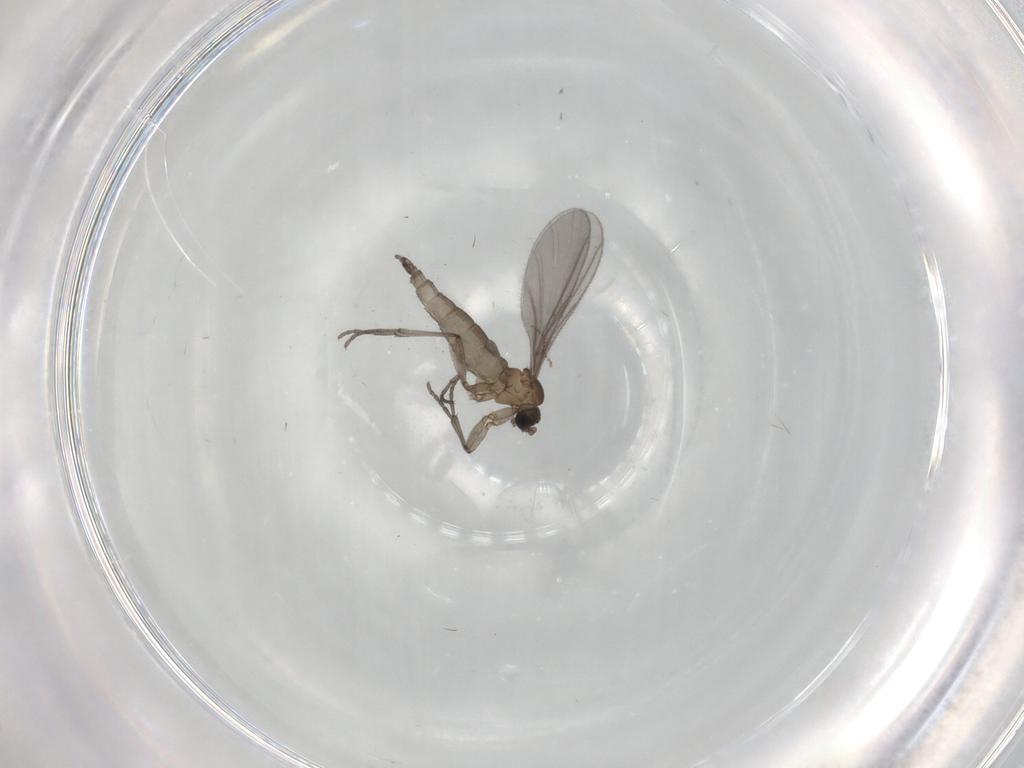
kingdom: Animalia
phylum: Arthropoda
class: Insecta
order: Diptera
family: Sciaridae
